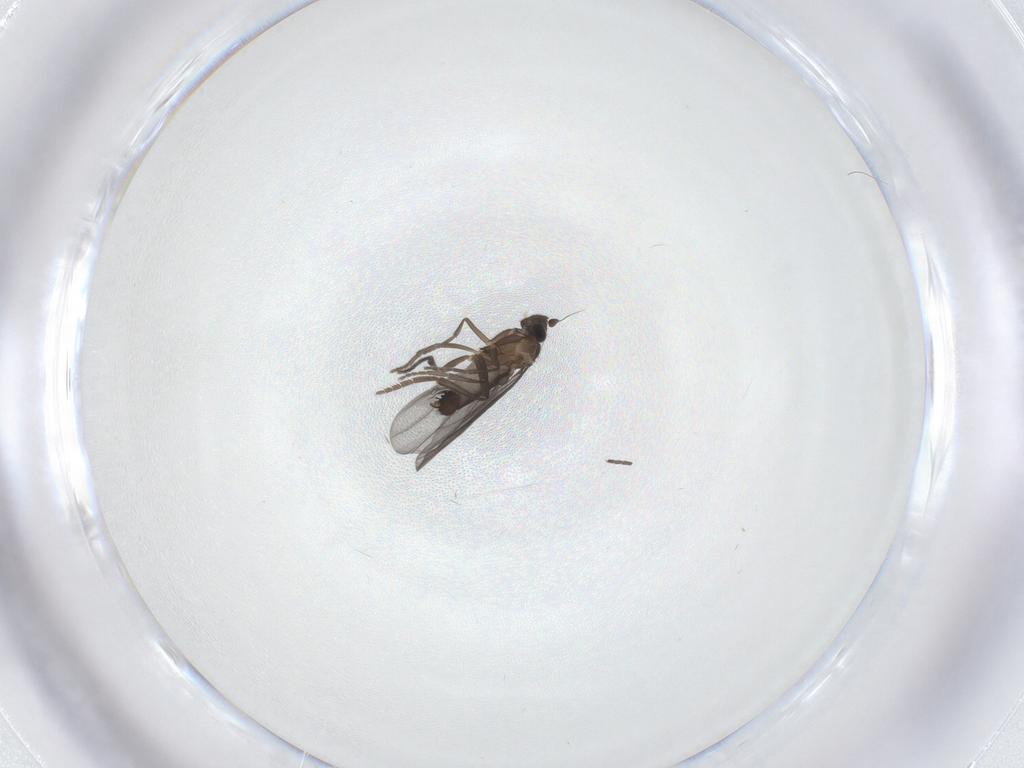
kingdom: Animalia
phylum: Arthropoda
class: Insecta
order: Diptera
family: Phoridae
